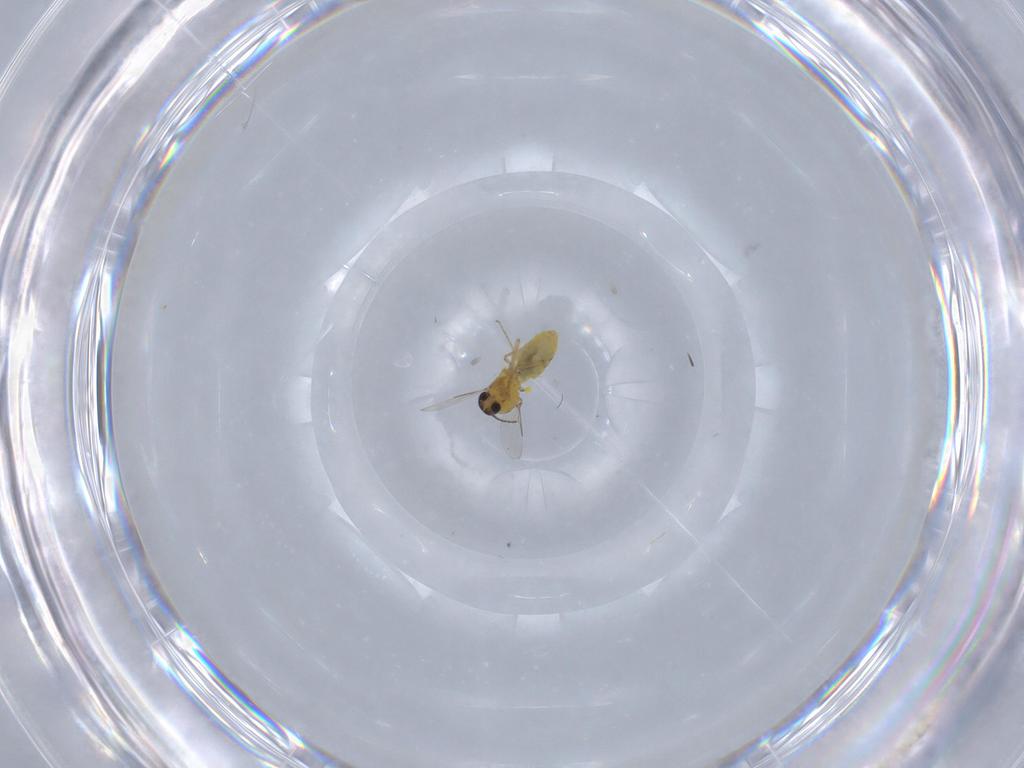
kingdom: Animalia
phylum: Arthropoda
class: Insecta
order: Diptera
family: Ceratopogonidae
